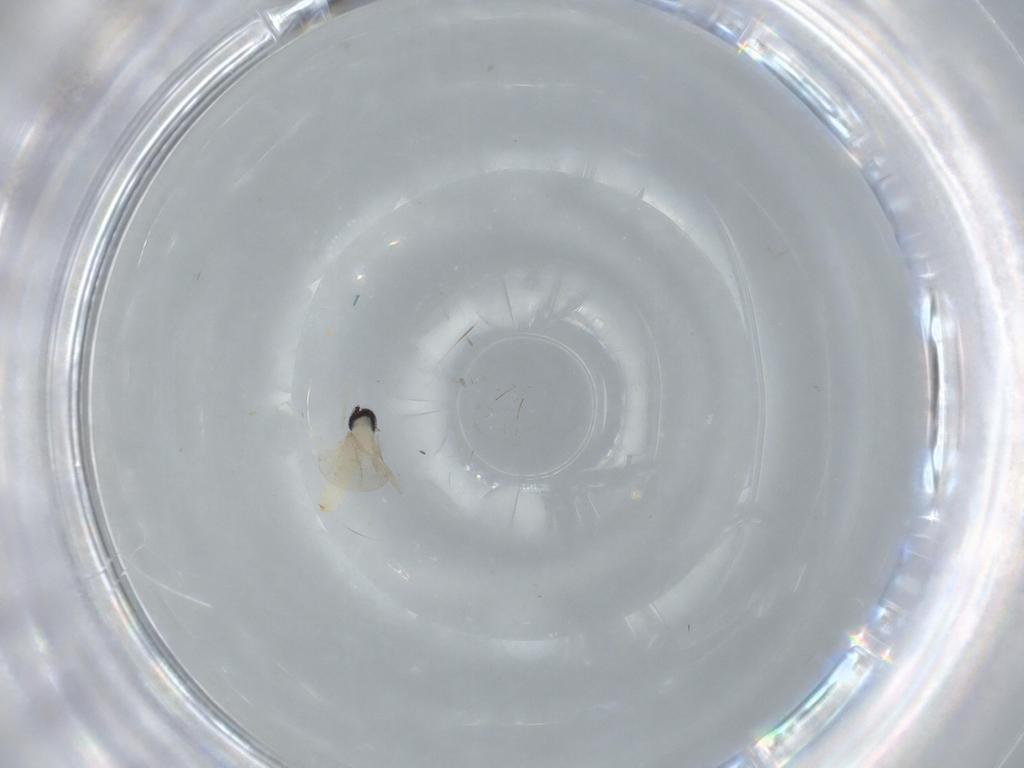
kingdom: Animalia
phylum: Arthropoda
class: Insecta
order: Diptera
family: Cecidomyiidae
